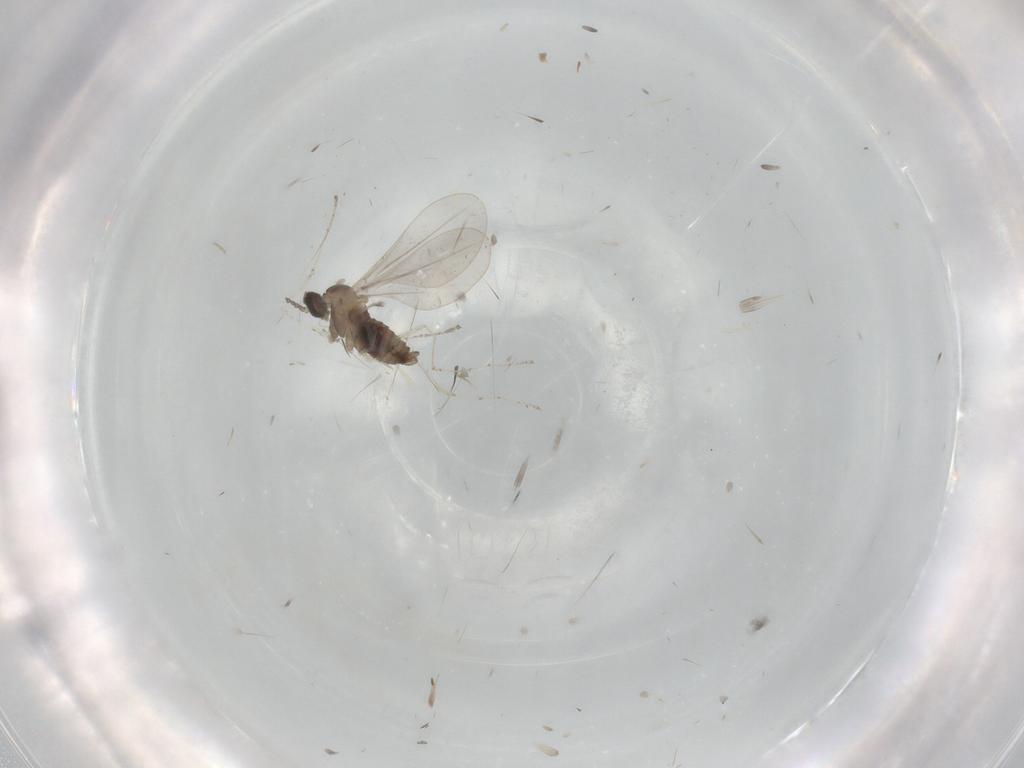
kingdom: Animalia
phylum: Arthropoda
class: Insecta
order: Diptera
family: Cecidomyiidae
